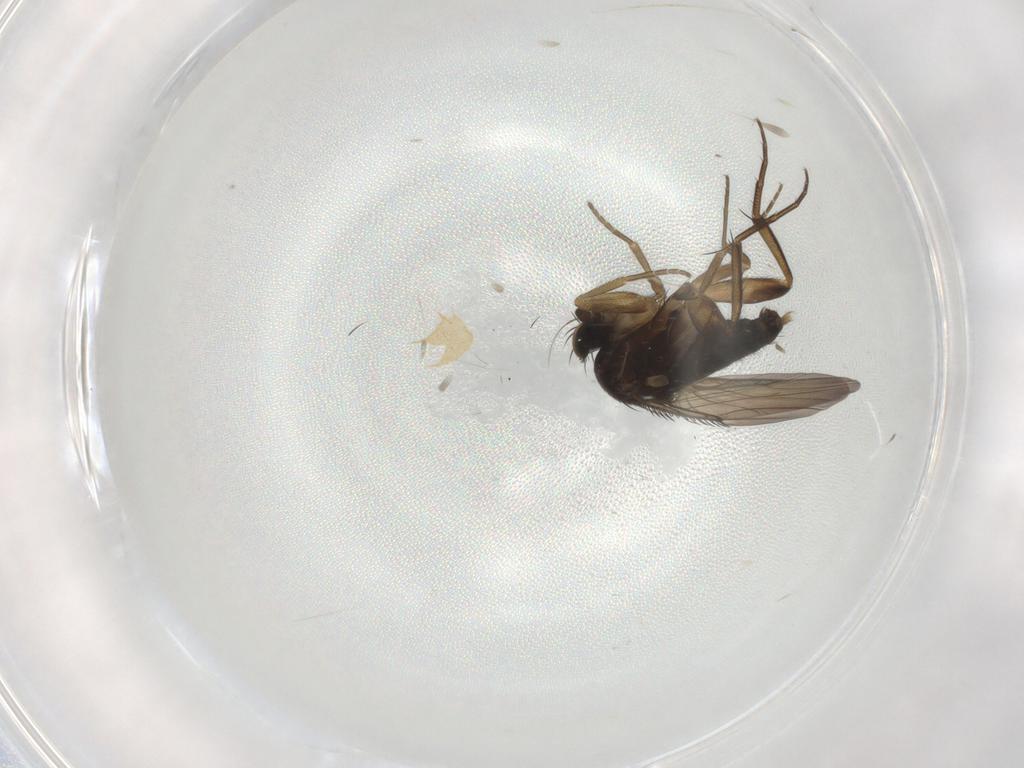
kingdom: Animalia
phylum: Arthropoda
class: Insecta
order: Diptera
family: Phoridae
